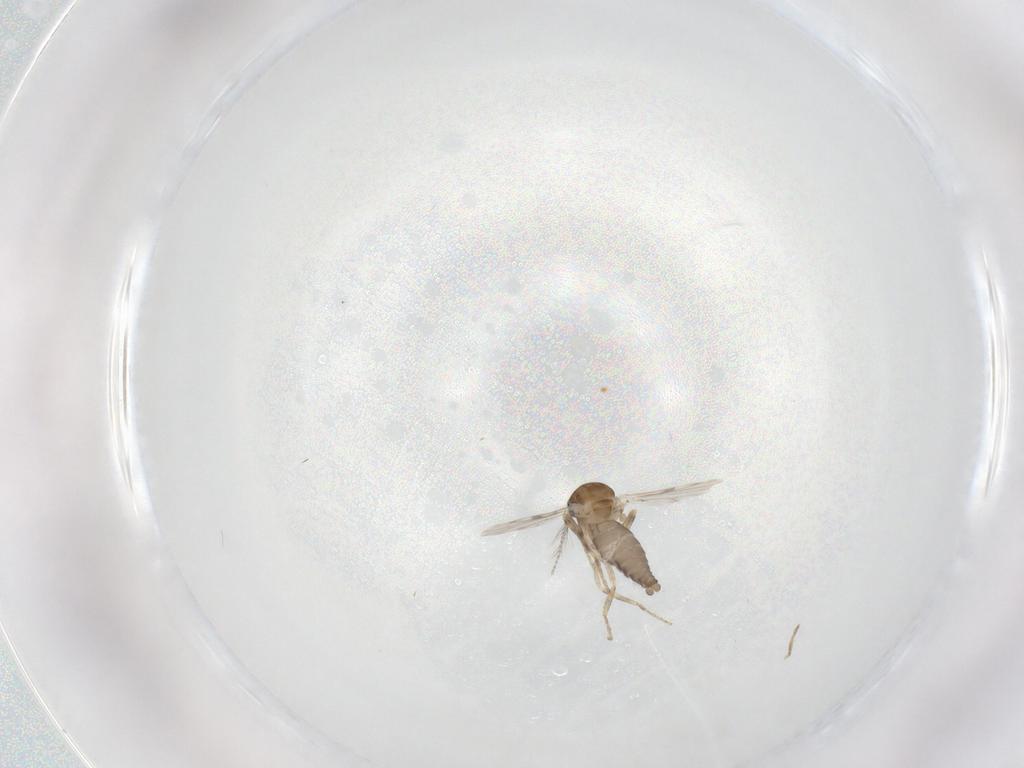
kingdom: Animalia
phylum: Arthropoda
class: Insecta
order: Diptera
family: Ceratopogonidae
